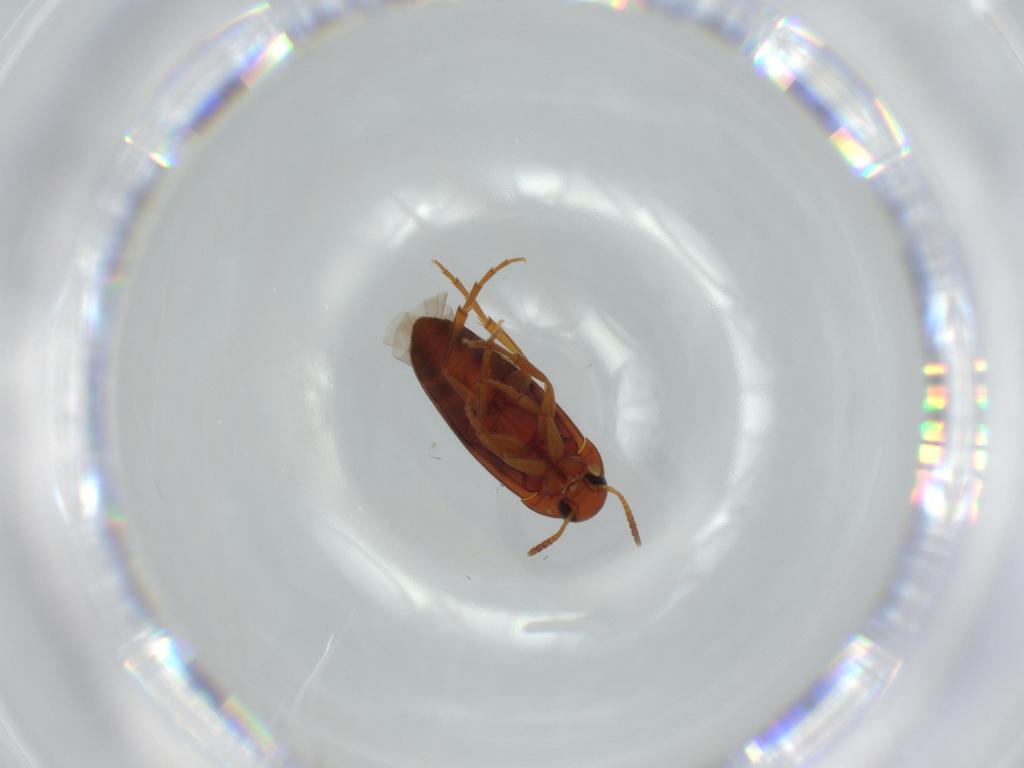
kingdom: Animalia
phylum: Arthropoda
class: Insecta
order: Coleoptera
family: Scraptiidae
